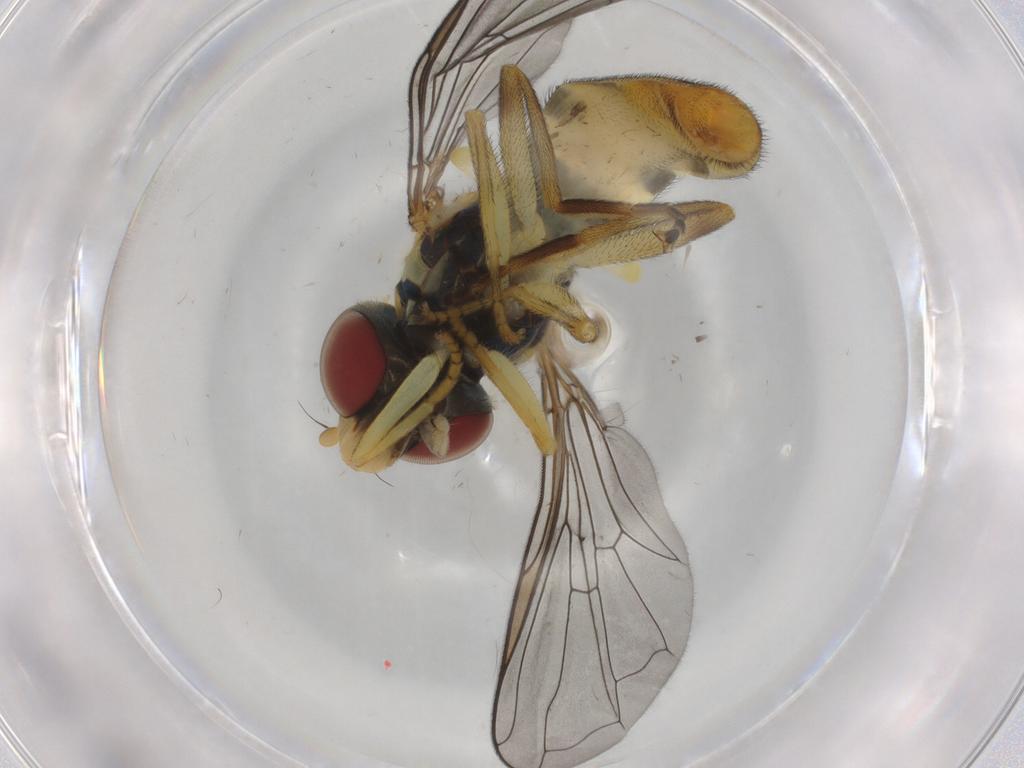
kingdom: Animalia
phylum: Arthropoda
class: Insecta
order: Diptera
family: Syrphidae
